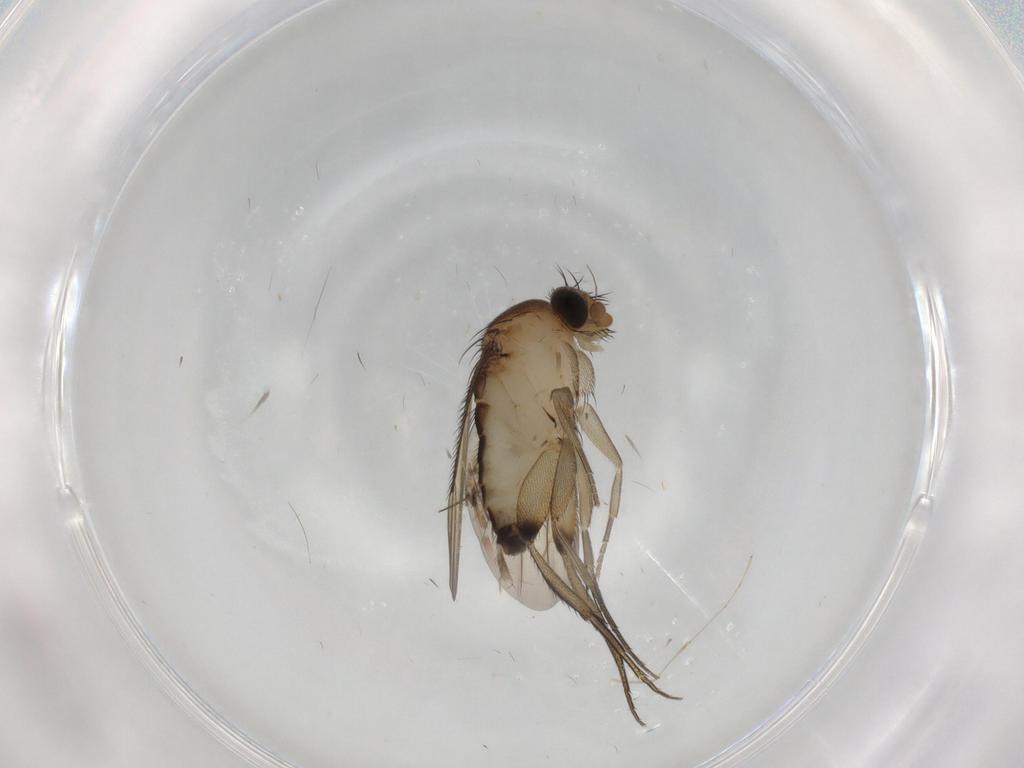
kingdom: Animalia
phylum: Arthropoda
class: Insecta
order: Diptera
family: Phoridae
